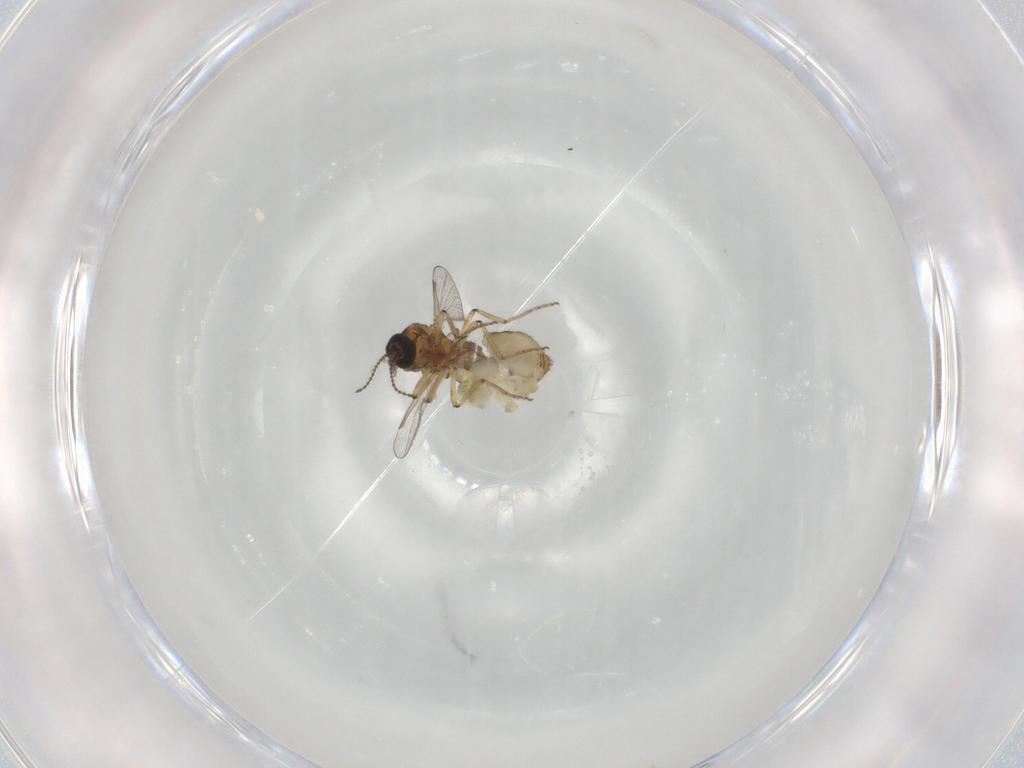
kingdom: Animalia
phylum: Arthropoda
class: Insecta
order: Diptera
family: Ceratopogonidae
